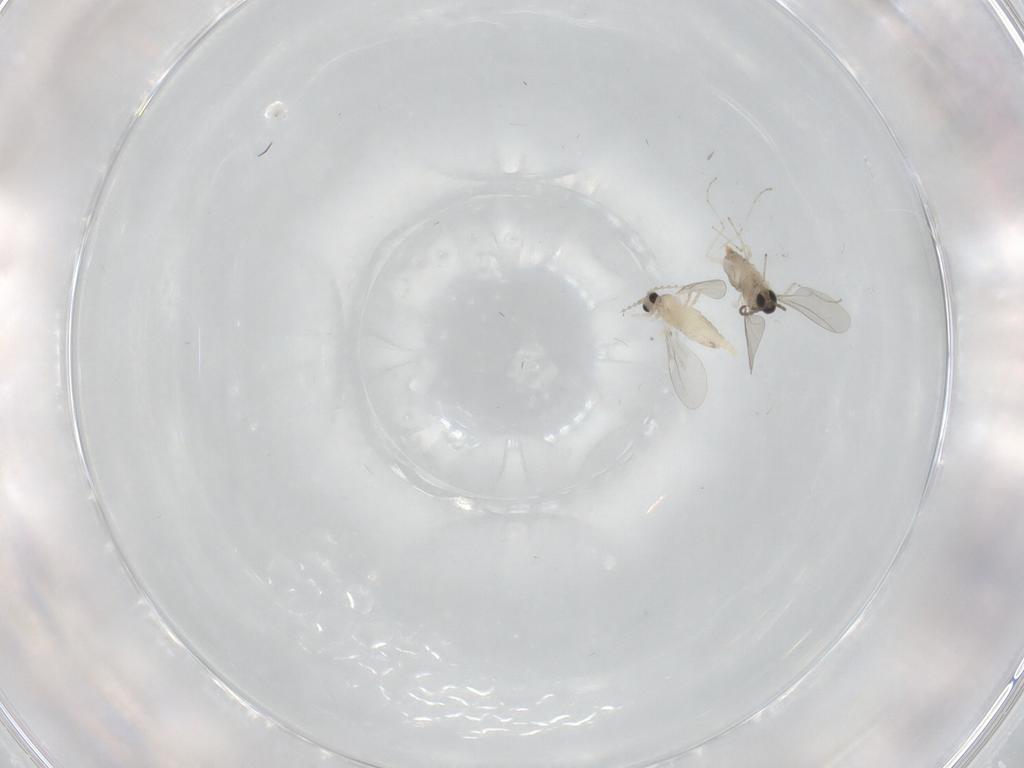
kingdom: Animalia
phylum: Arthropoda
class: Insecta
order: Diptera
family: Cecidomyiidae
